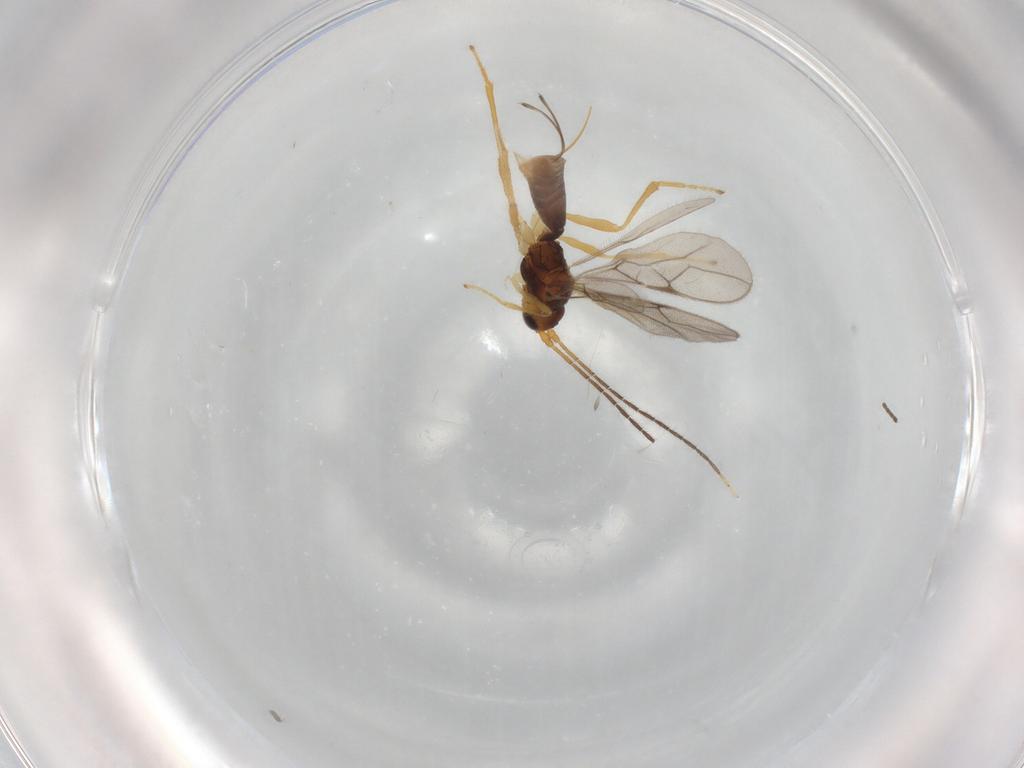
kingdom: Animalia
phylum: Arthropoda
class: Insecta
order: Hymenoptera
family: Braconidae
